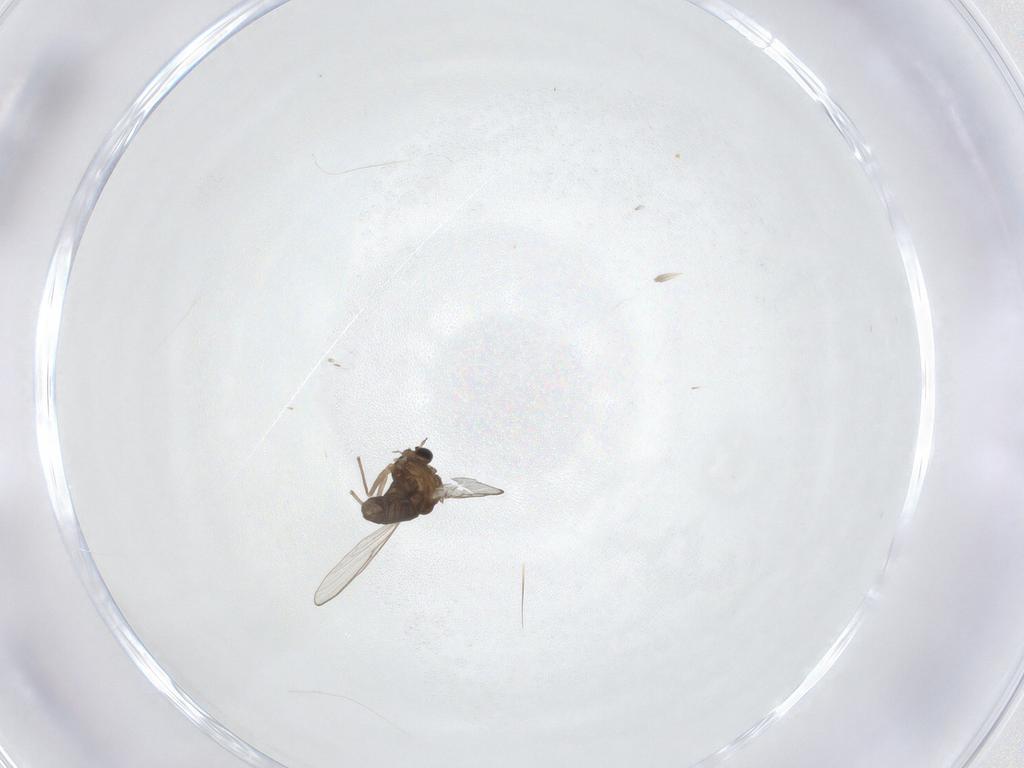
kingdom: Animalia
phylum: Arthropoda
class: Insecta
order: Diptera
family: Chironomidae
